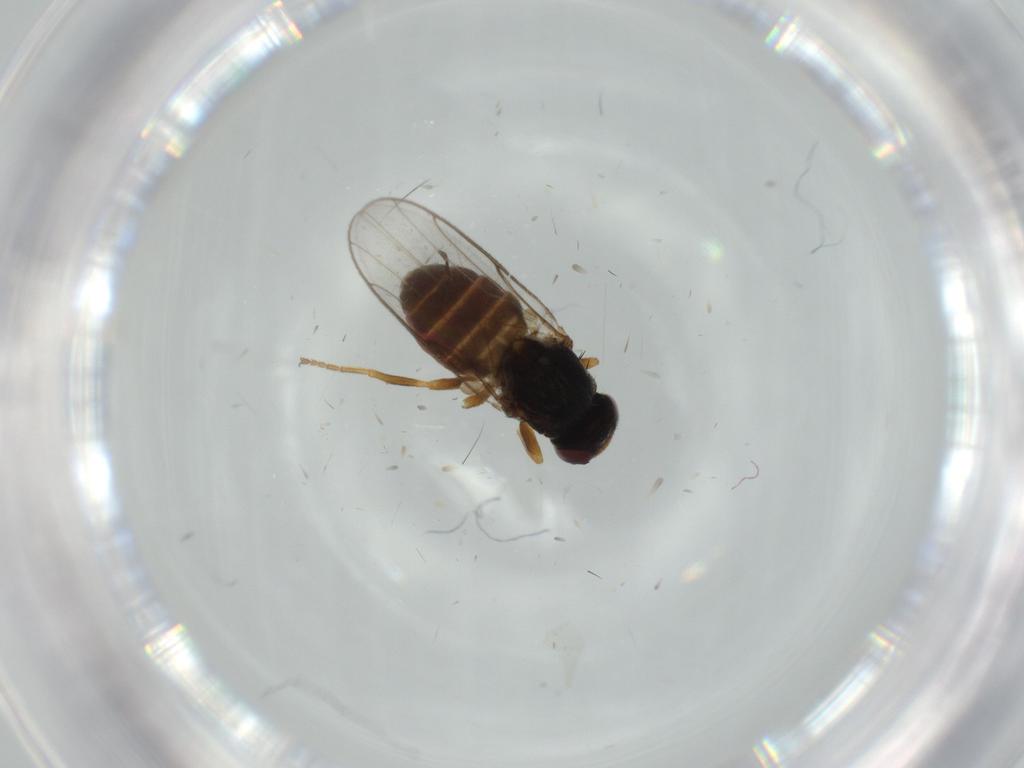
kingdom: Animalia
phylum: Arthropoda
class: Insecta
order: Diptera
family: Chloropidae
